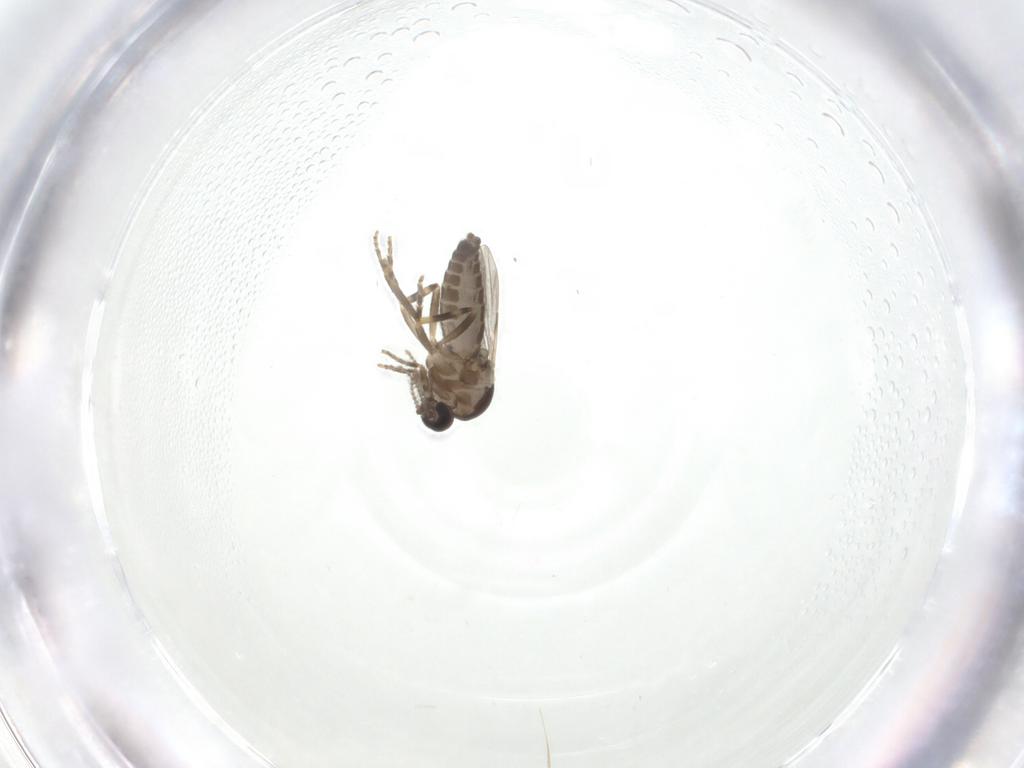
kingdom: Animalia
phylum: Arthropoda
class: Insecta
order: Diptera
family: Ceratopogonidae
